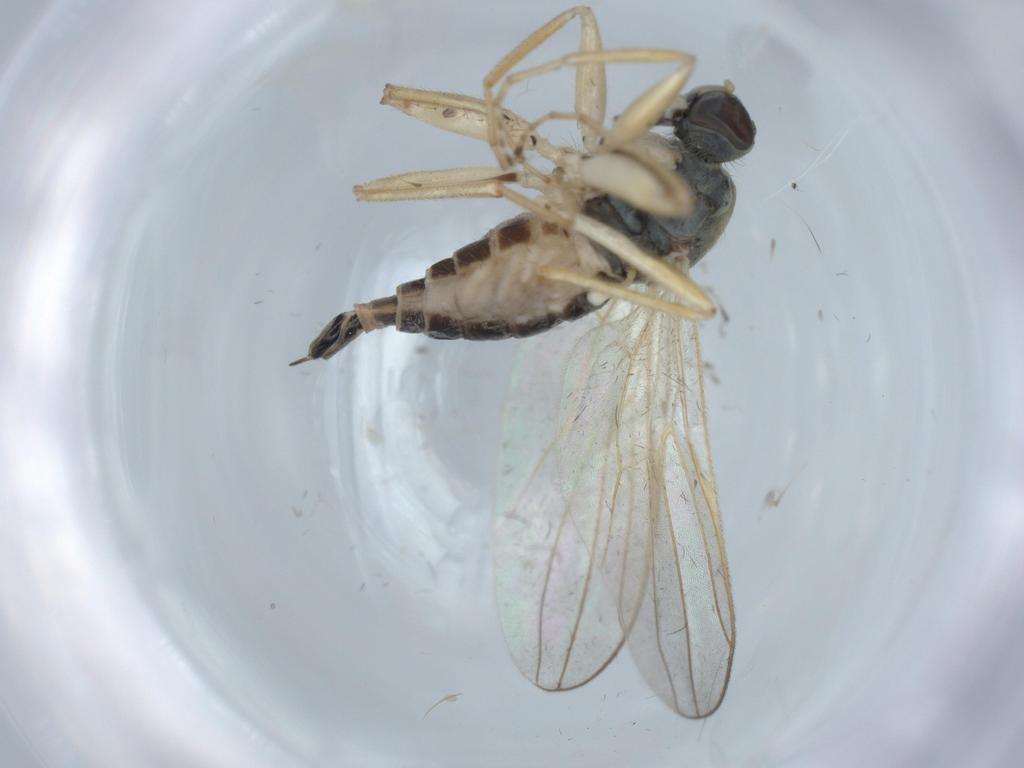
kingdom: Animalia
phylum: Arthropoda
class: Insecta
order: Diptera
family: Hybotidae
